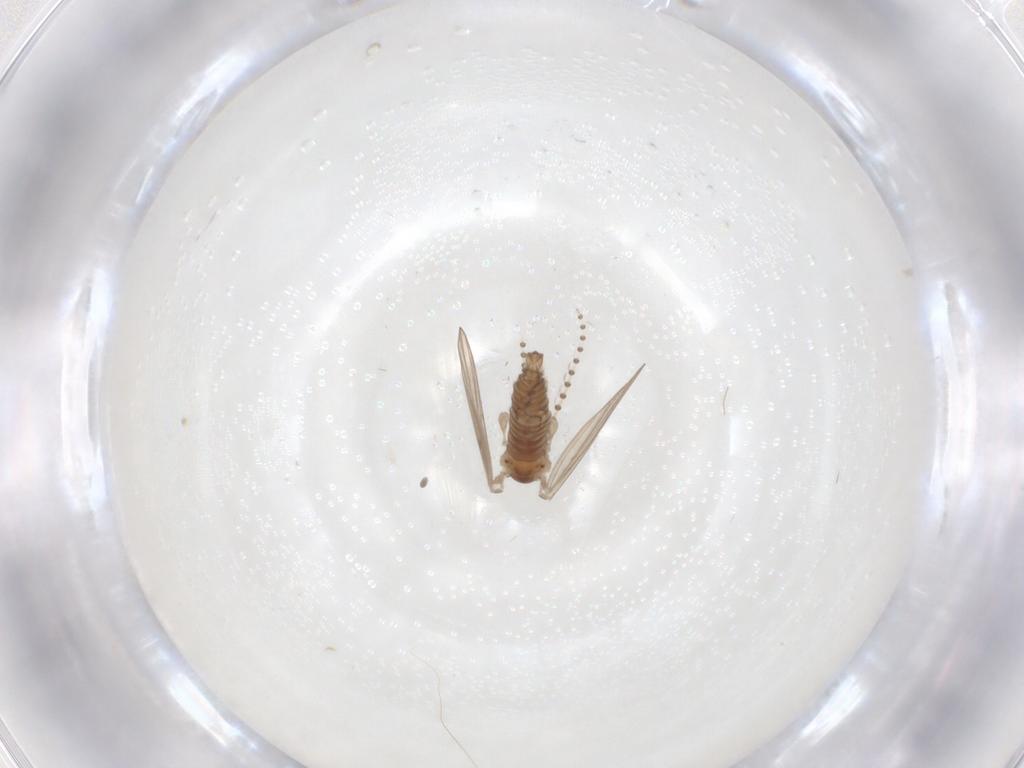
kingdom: Animalia
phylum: Arthropoda
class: Insecta
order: Diptera
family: Psychodidae
